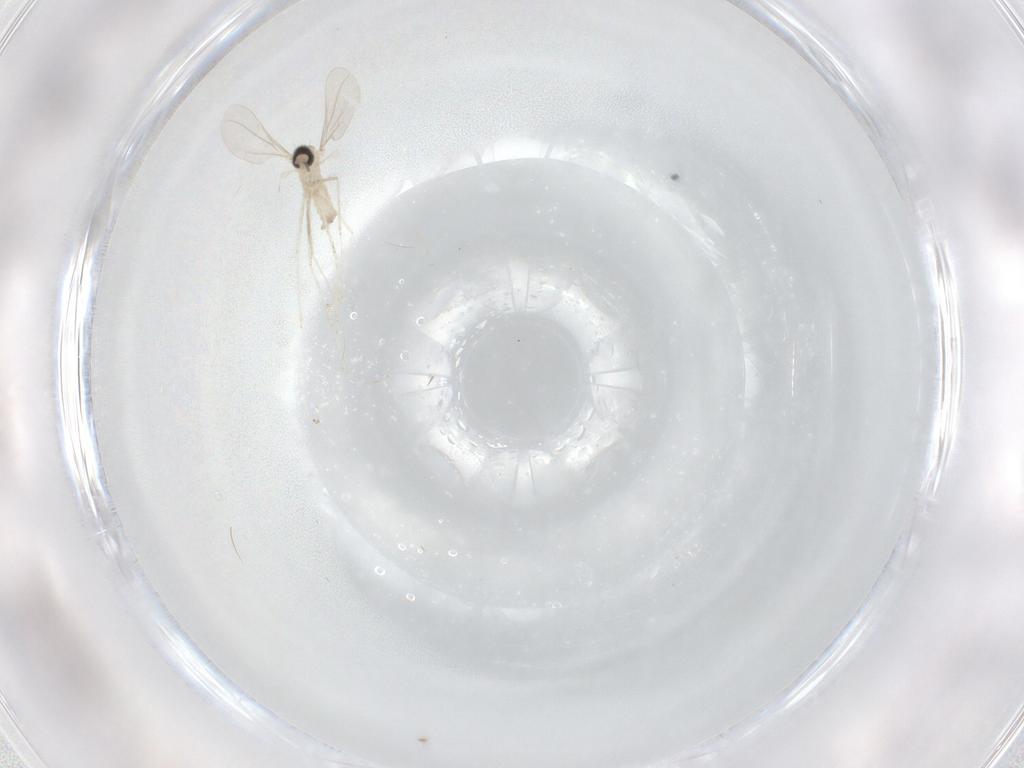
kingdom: Animalia
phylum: Arthropoda
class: Insecta
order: Diptera
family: Cecidomyiidae
